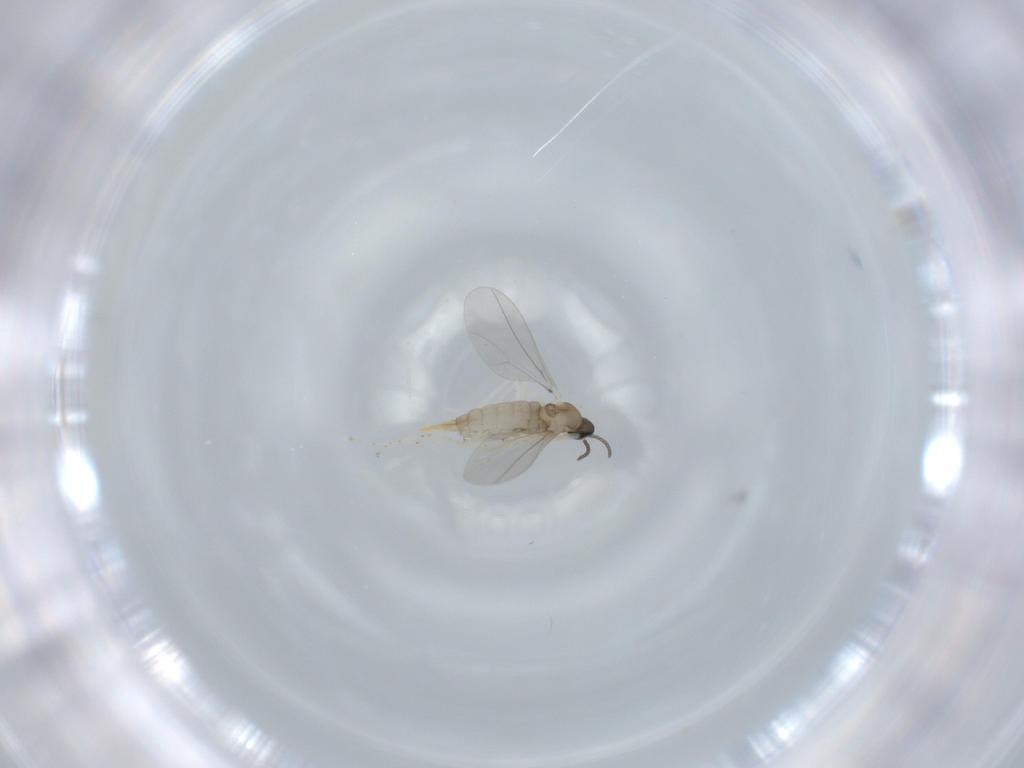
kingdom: Animalia
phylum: Arthropoda
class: Insecta
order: Diptera
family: Cecidomyiidae
